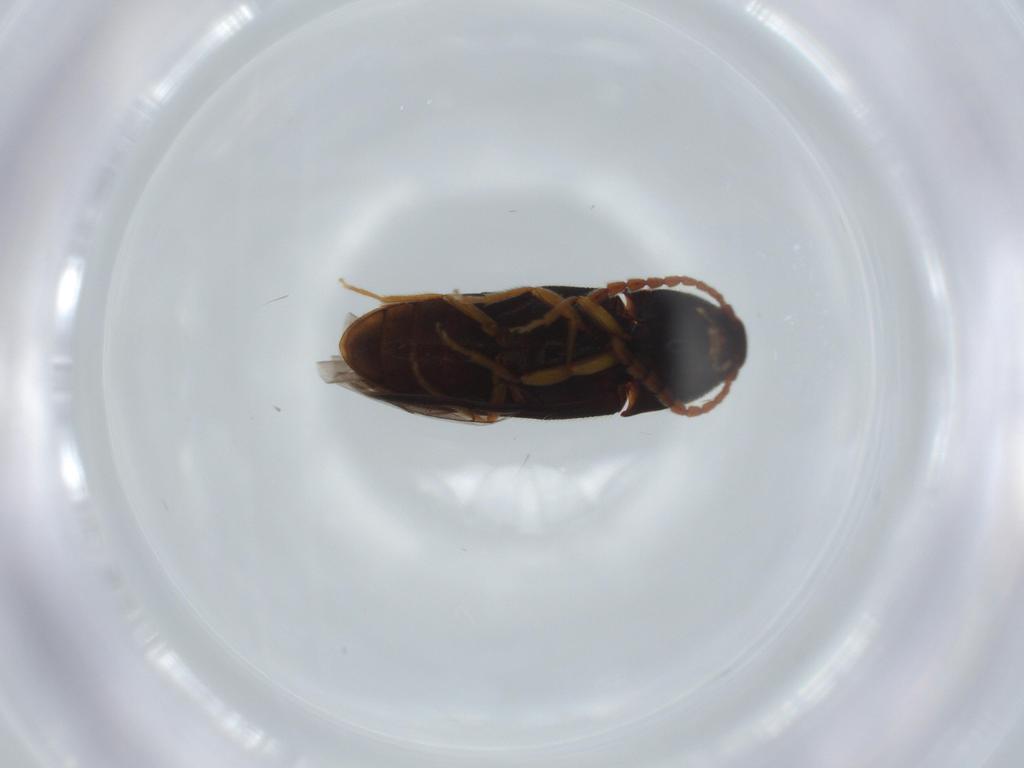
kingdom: Animalia
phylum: Arthropoda
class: Insecta
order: Coleoptera
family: Coccinellidae
